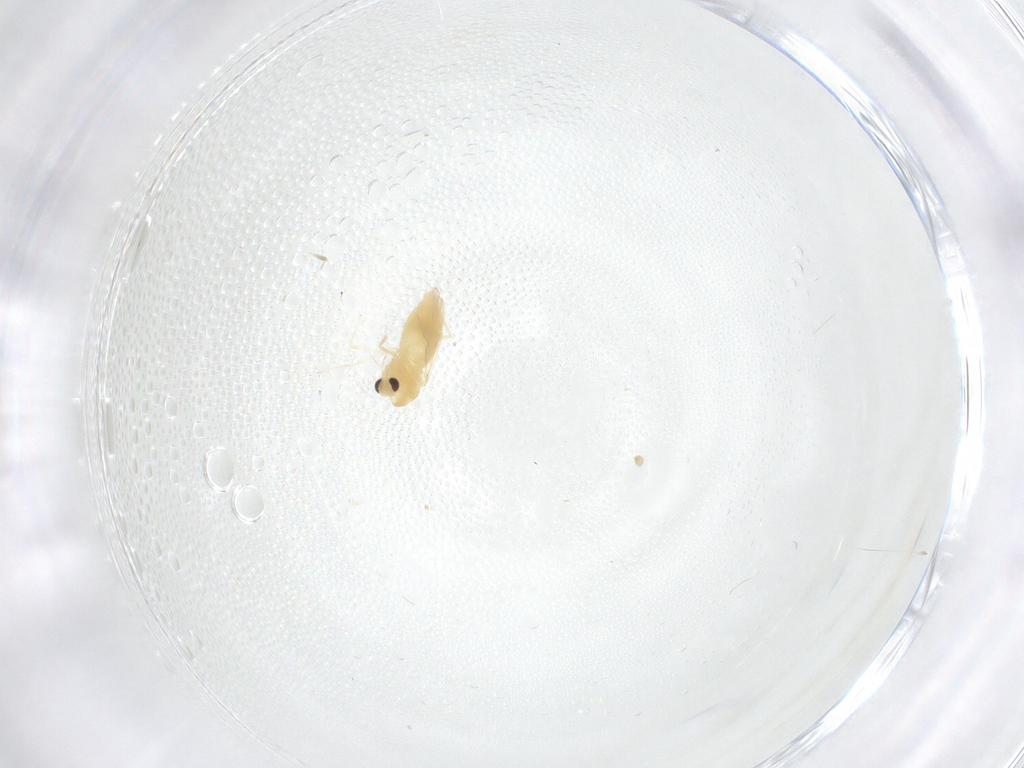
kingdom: Animalia
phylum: Arthropoda
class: Insecta
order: Diptera
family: Chironomidae
